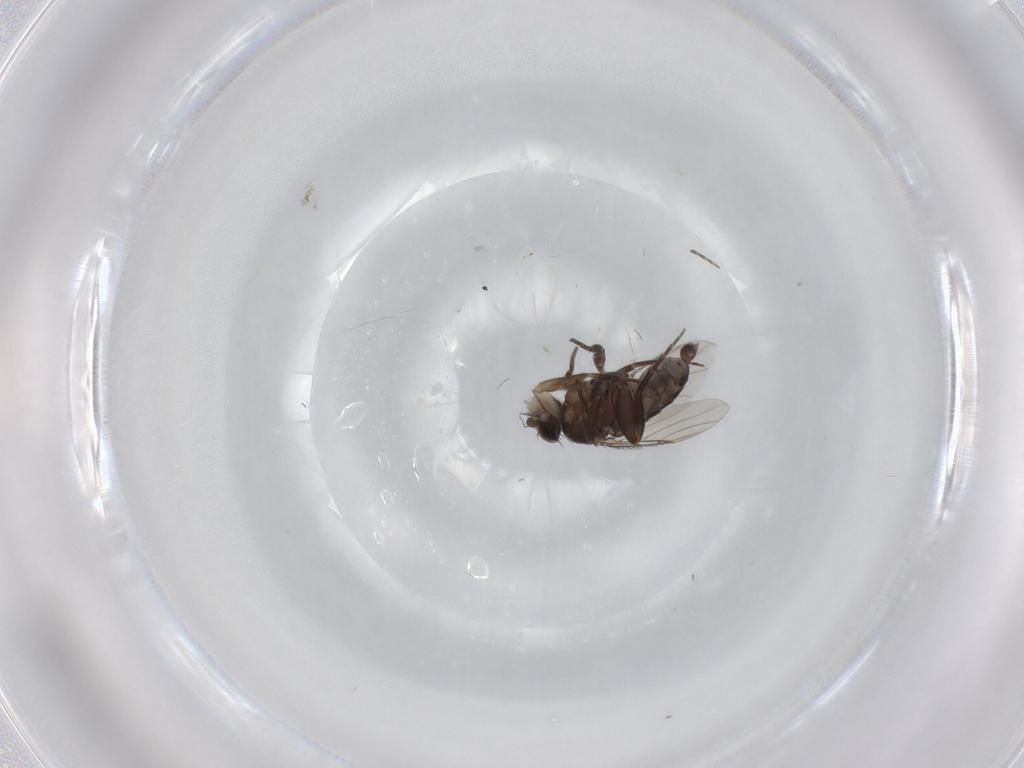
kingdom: Animalia
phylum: Arthropoda
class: Insecta
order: Diptera
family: Phoridae
